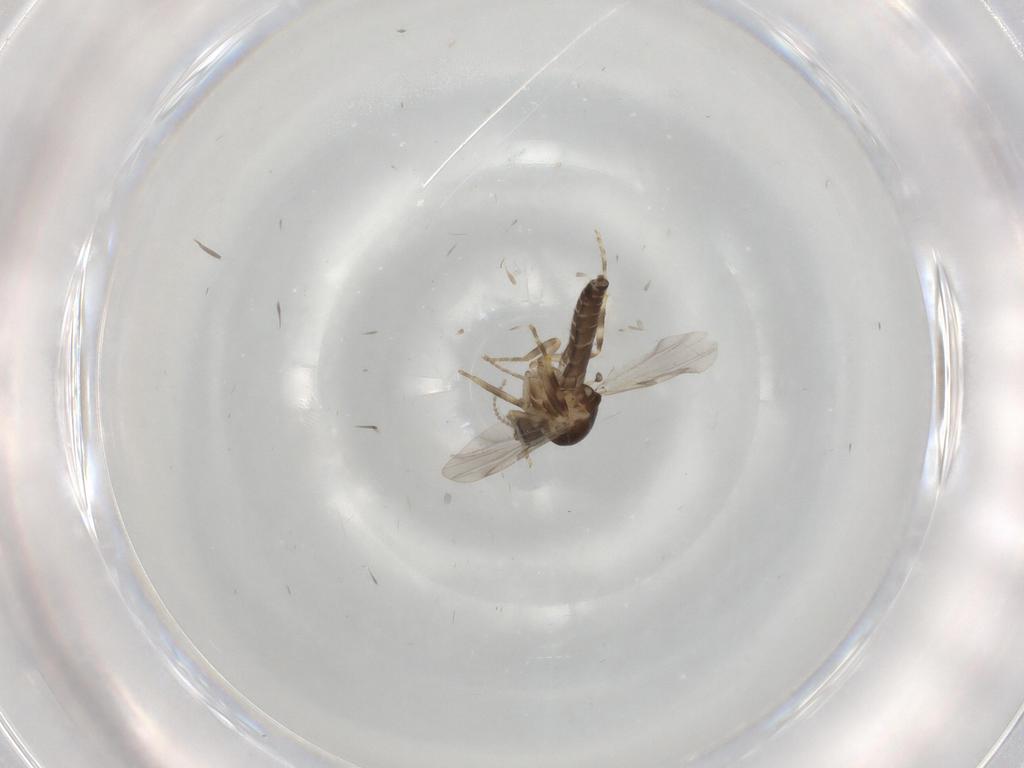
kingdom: Animalia
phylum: Arthropoda
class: Insecta
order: Diptera
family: Ceratopogonidae
